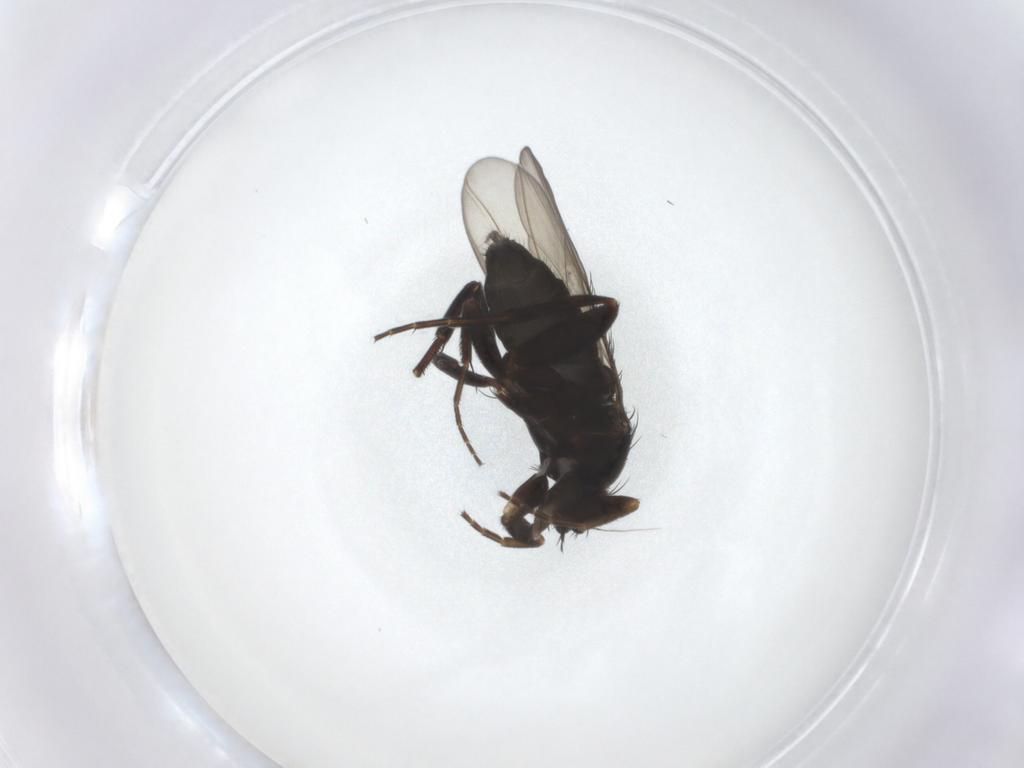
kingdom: Animalia
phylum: Arthropoda
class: Insecta
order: Diptera
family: Phoridae
